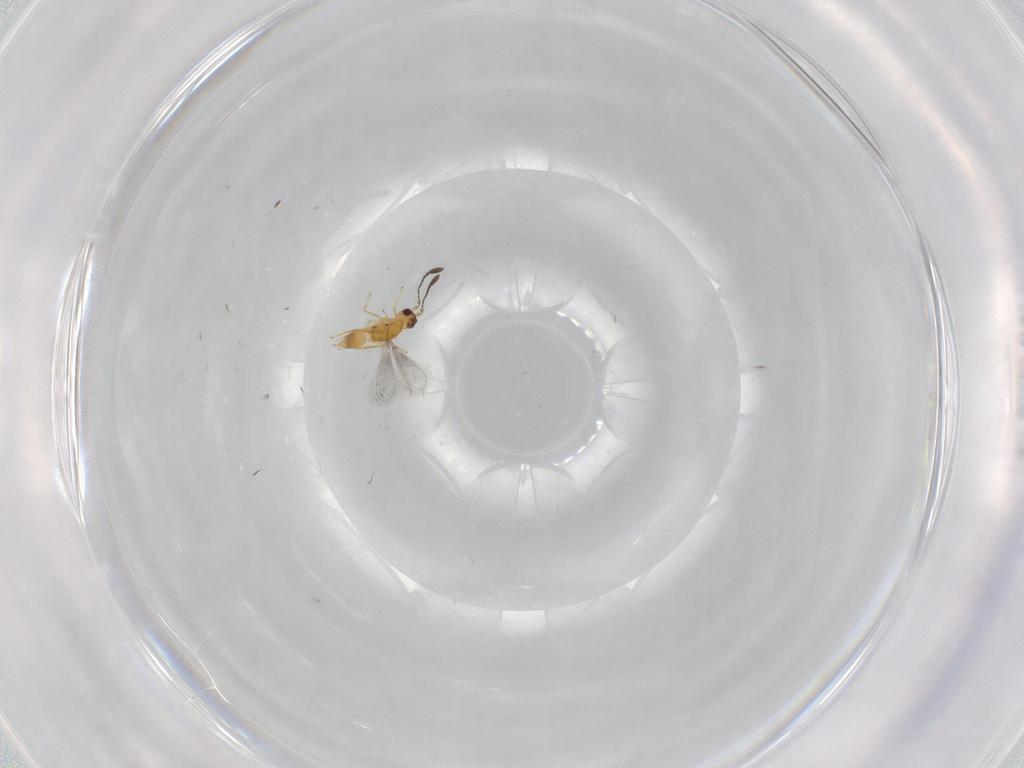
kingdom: Animalia
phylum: Arthropoda
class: Insecta
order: Hymenoptera
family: Mymaridae
